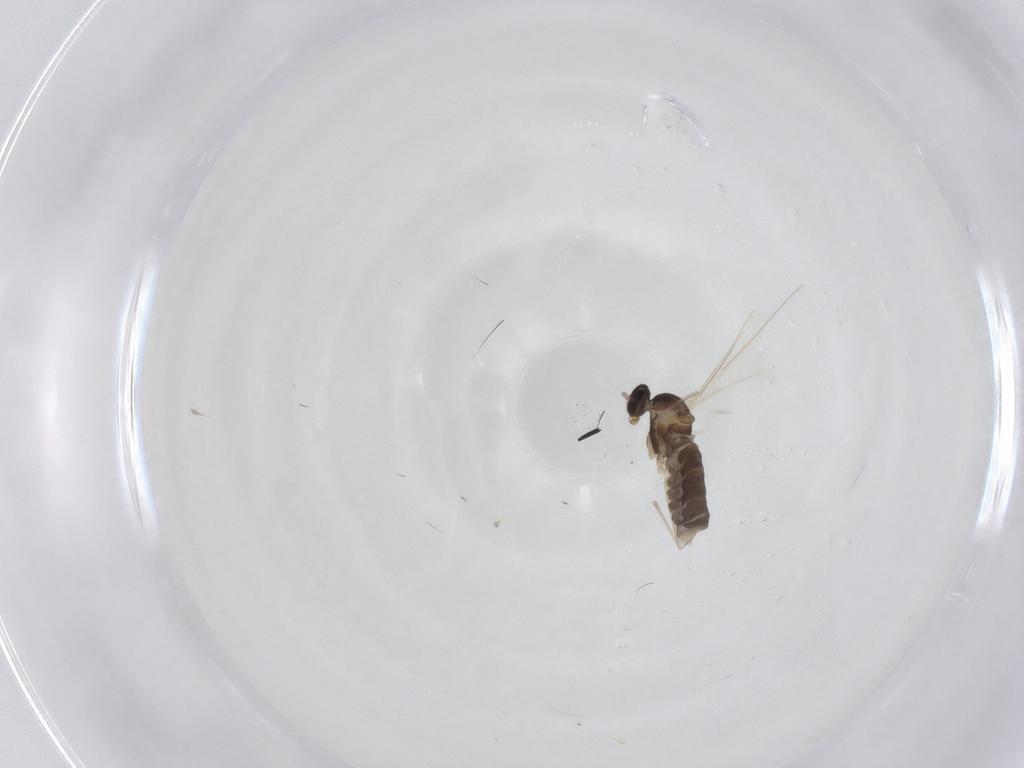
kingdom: Animalia
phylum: Arthropoda
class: Insecta
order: Diptera
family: Cecidomyiidae
